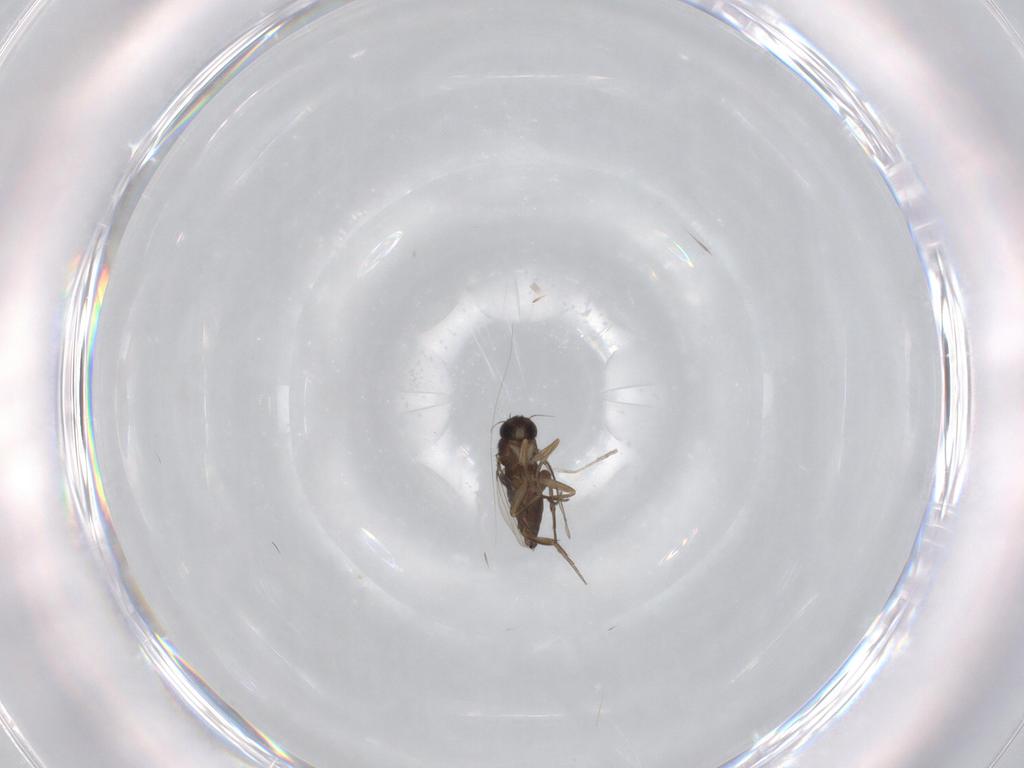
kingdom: Animalia
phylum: Arthropoda
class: Insecta
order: Diptera
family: Phoridae
